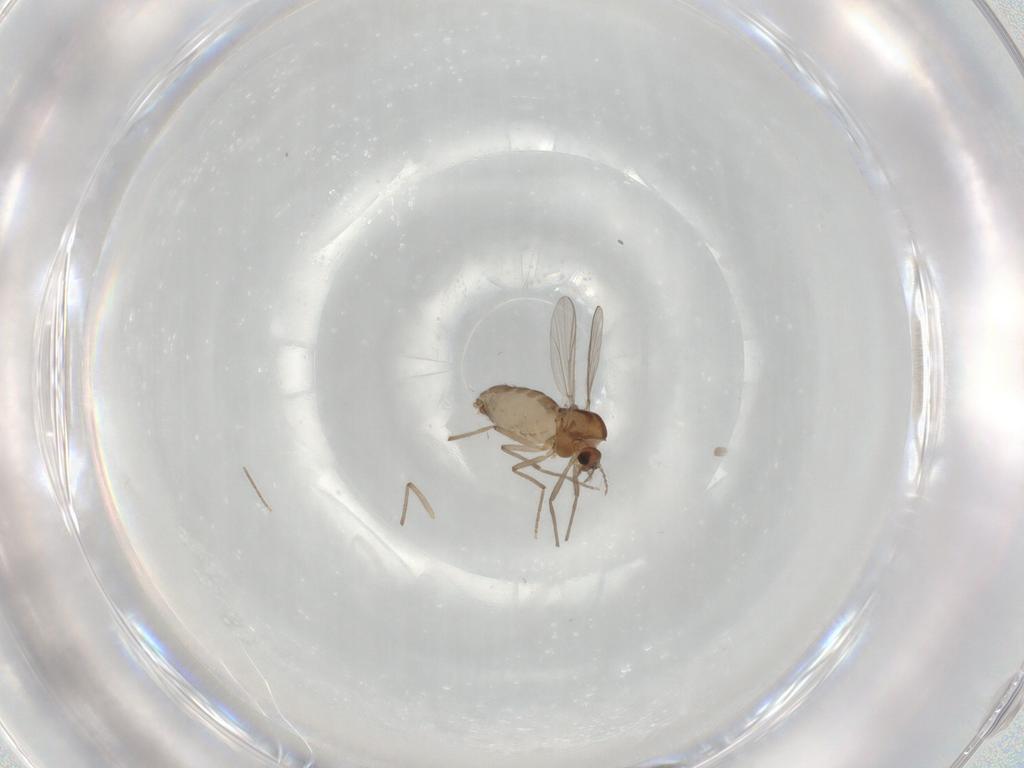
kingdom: Animalia
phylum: Arthropoda
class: Insecta
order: Diptera
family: Chironomidae
